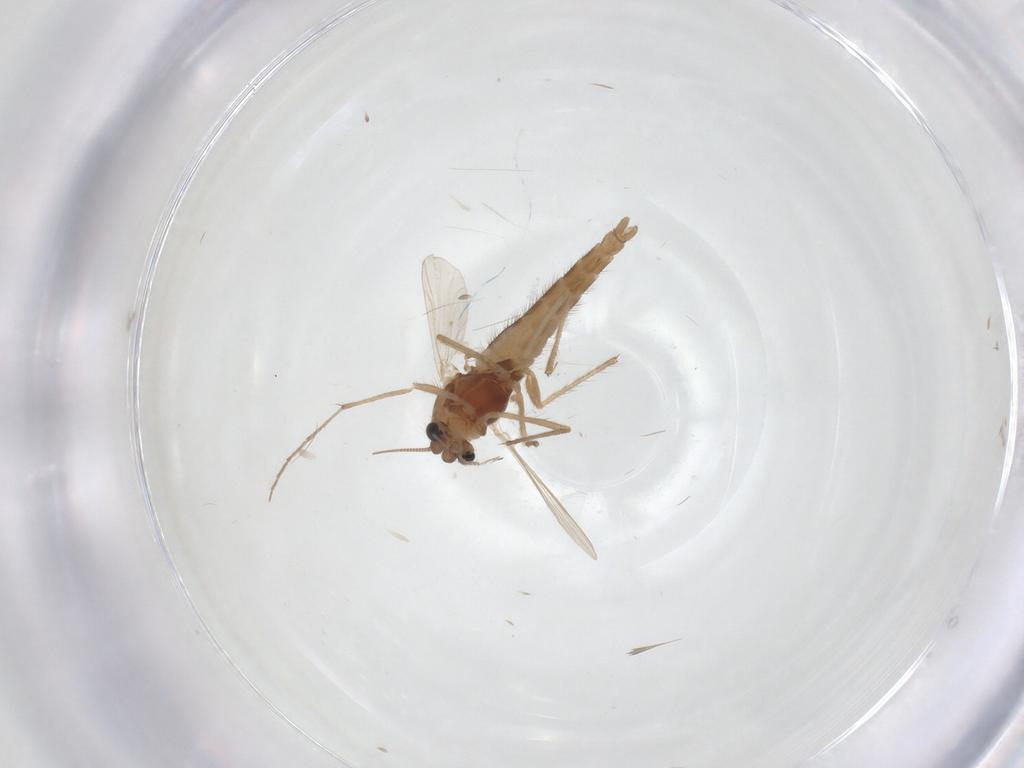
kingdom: Animalia
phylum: Arthropoda
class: Insecta
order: Diptera
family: Chironomidae
